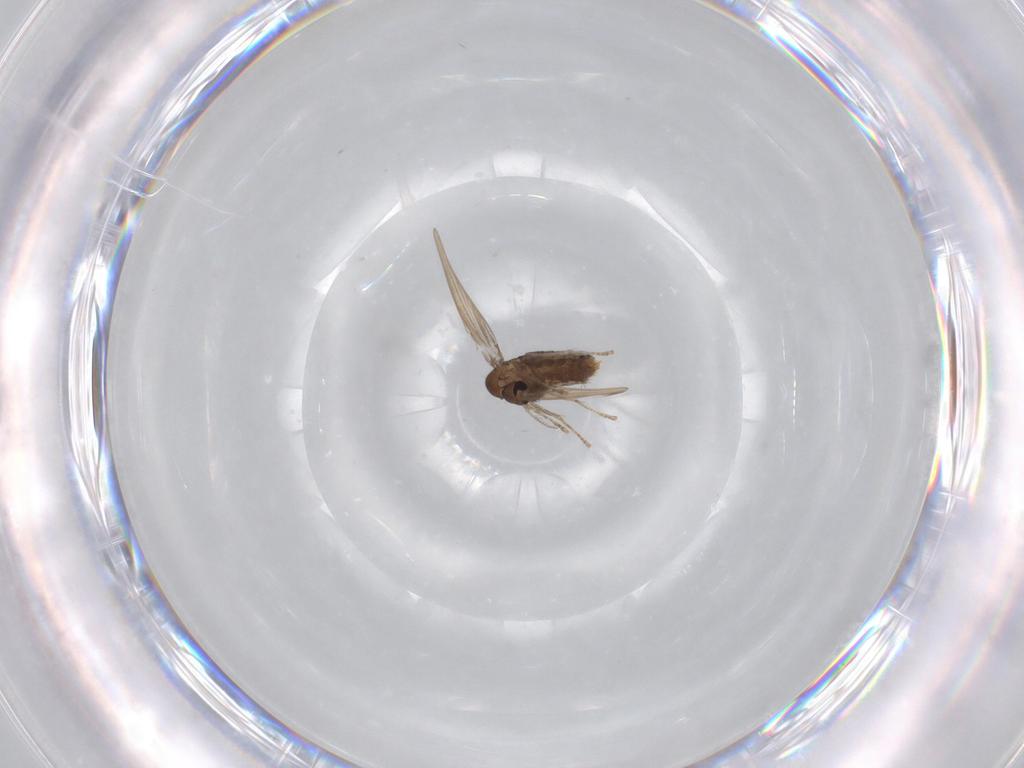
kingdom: Animalia
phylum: Arthropoda
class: Insecta
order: Diptera
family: Psychodidae
